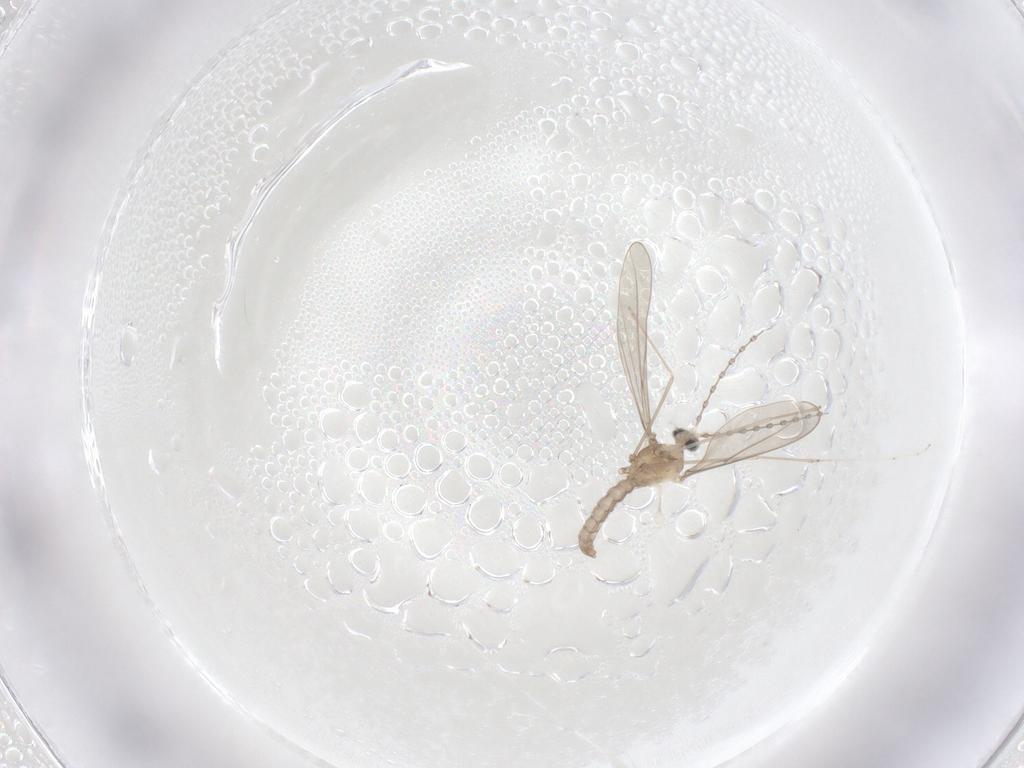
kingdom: Animalia
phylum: Arthropoda
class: Insecta
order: Diptera
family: Cecidomyiidae
